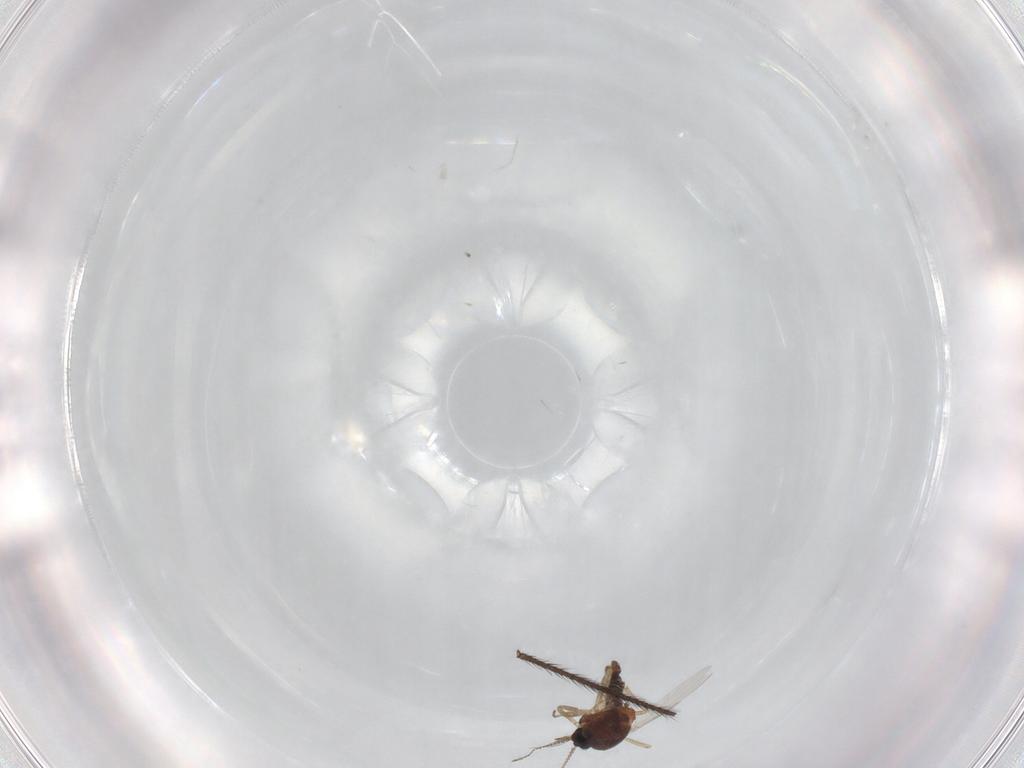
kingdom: Animalia
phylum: Arthropoda
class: Insecta
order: Diptera
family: Ceratopogonidae
